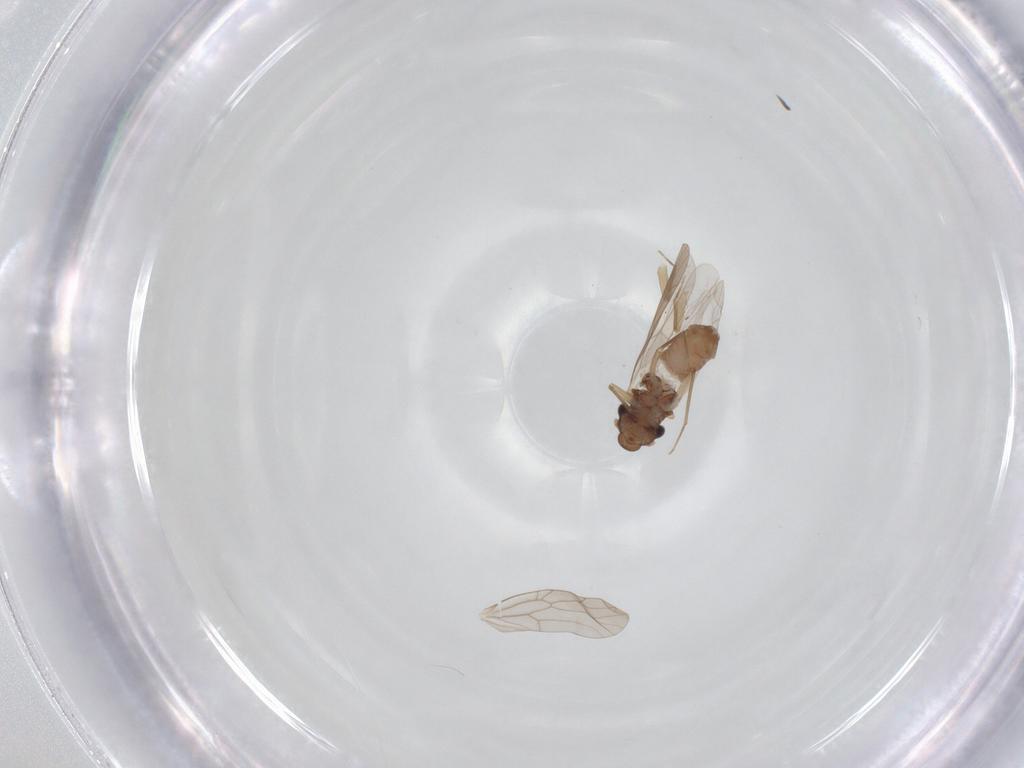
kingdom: Animalia
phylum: Arthropoda
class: Insecta
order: Psocodea
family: Lepidopsocidae
